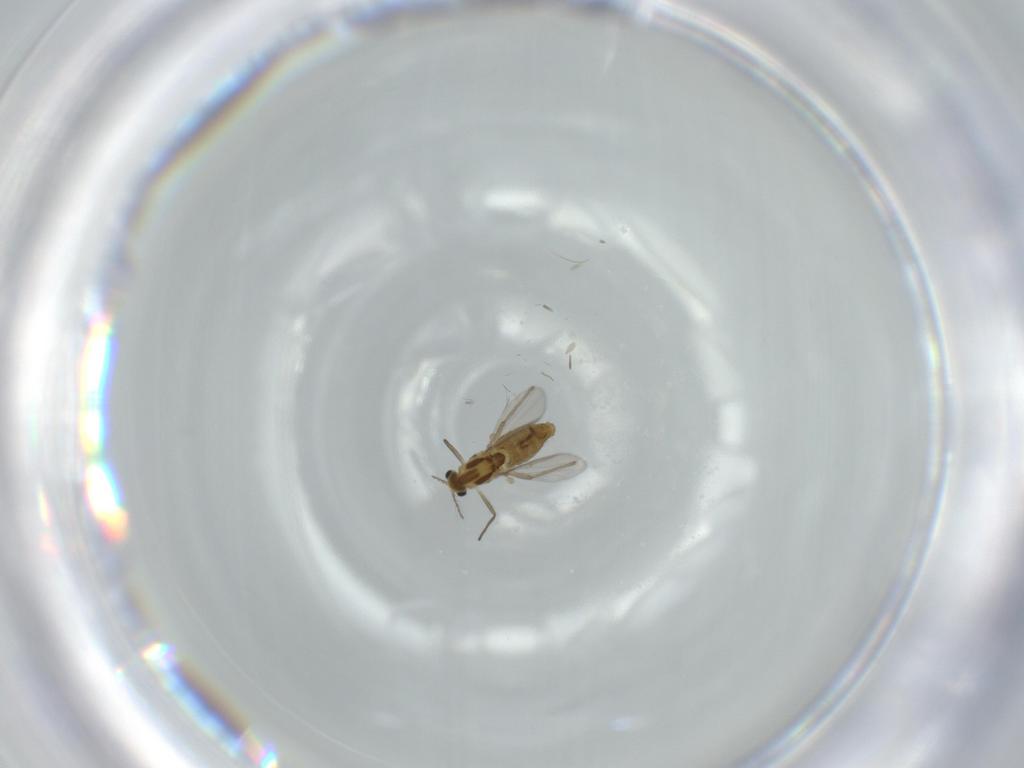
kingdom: Animalia
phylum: Arthropoda
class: Insecta
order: Diptera
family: Chironomidae
